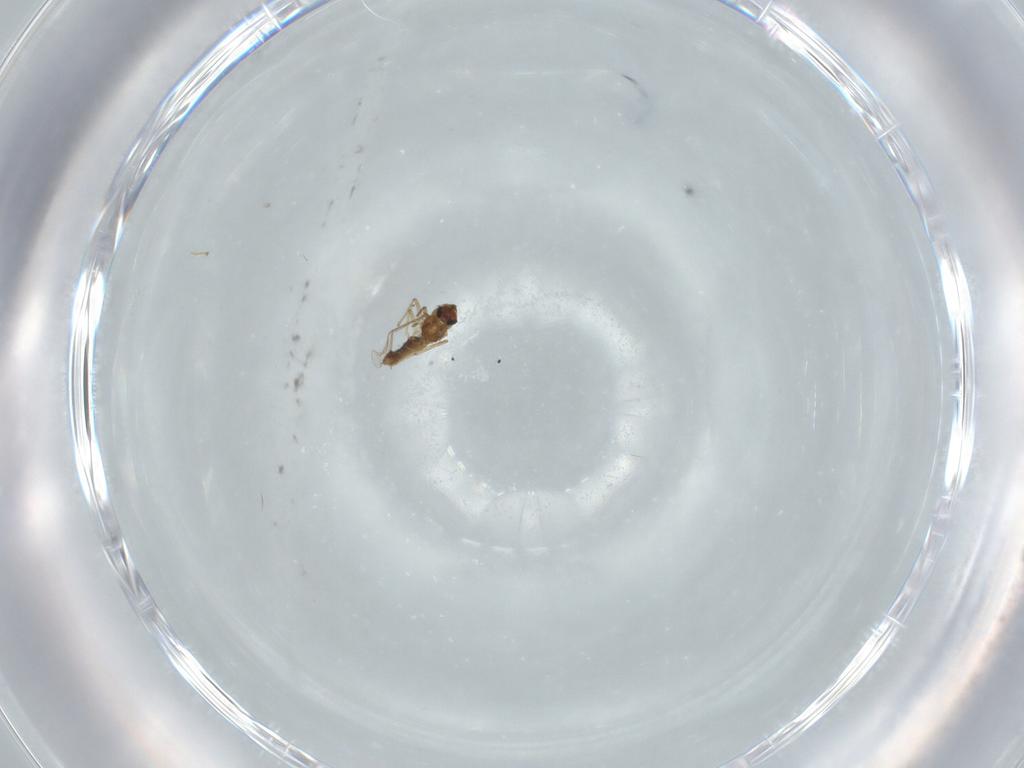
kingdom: Animalia
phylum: Arthropoda
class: Insecta
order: Diptera
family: Chironomidae
